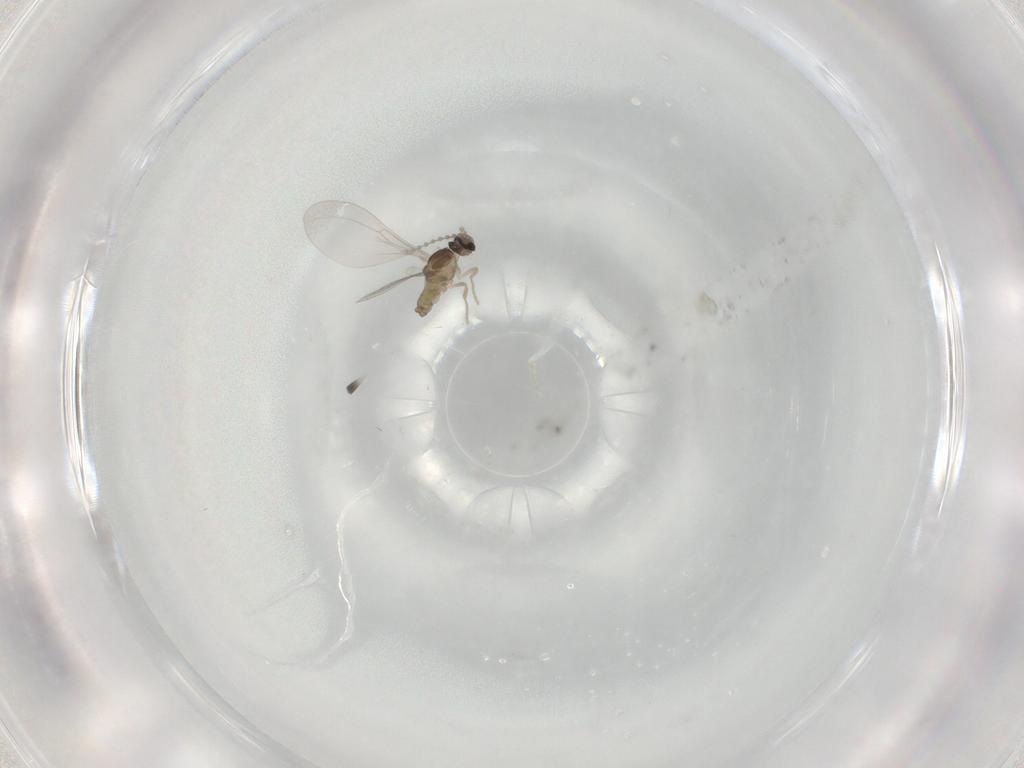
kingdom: Animalia
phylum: Arthropoda
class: Insecta
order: Diptera
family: Cecidomyiidae
